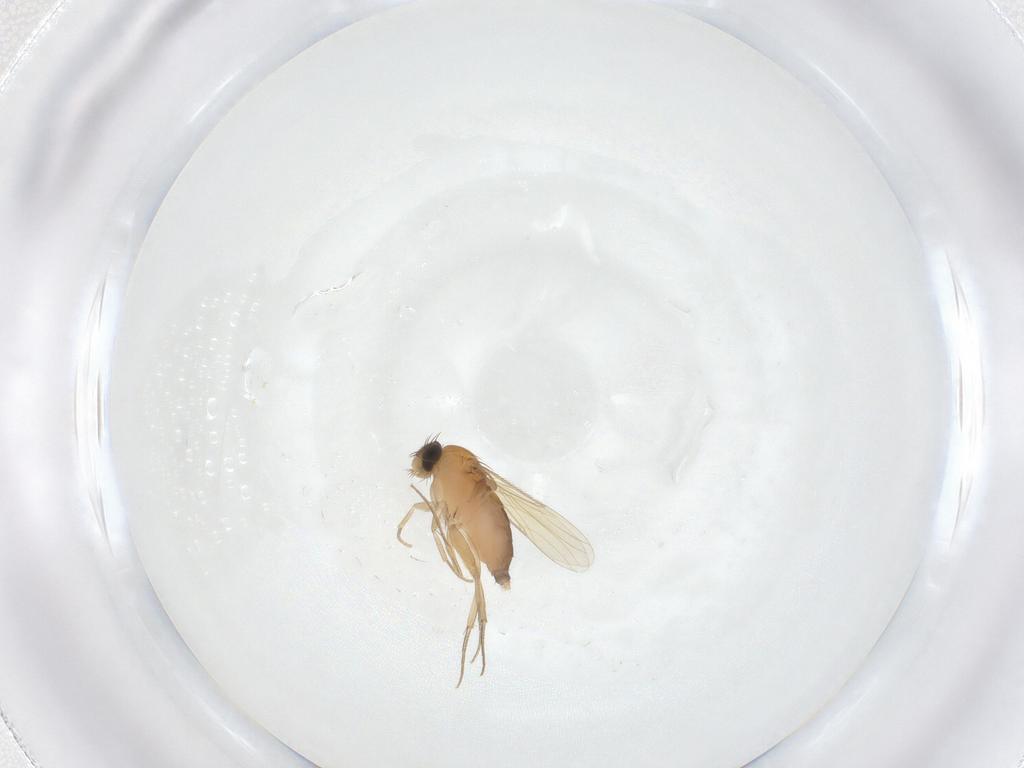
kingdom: Animalia
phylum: Arthropoda
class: Insecta
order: Diptera
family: Phoridae
